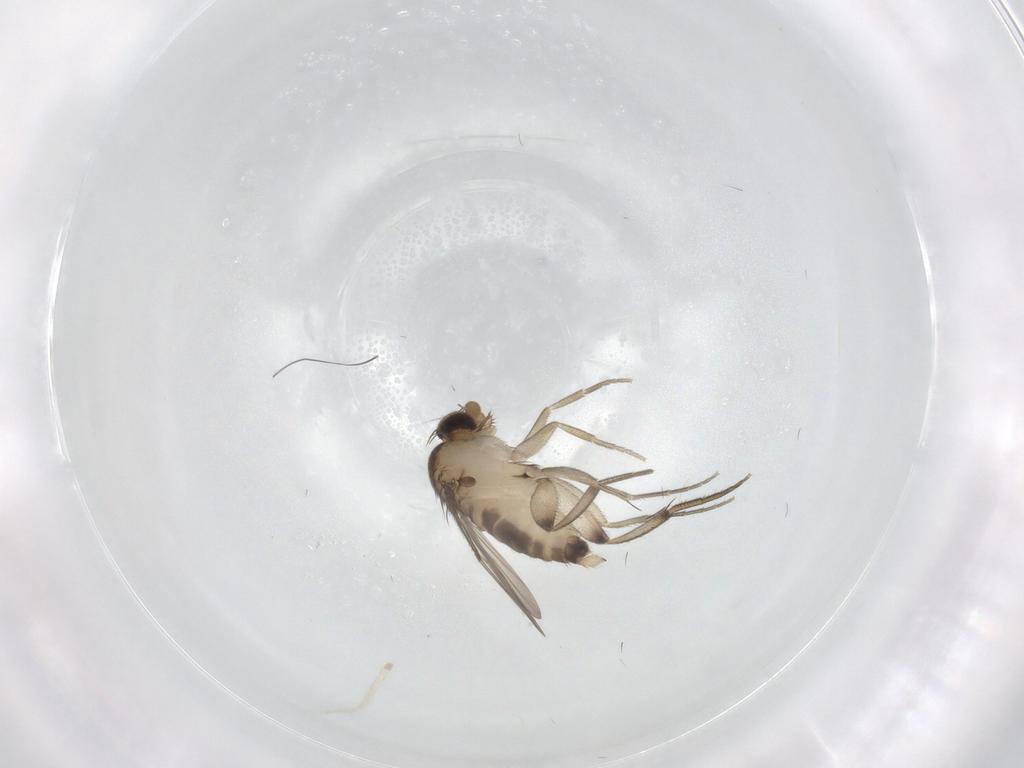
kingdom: Animalia
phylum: Arthropoda
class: Insecta
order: Diptera
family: Phoridae
